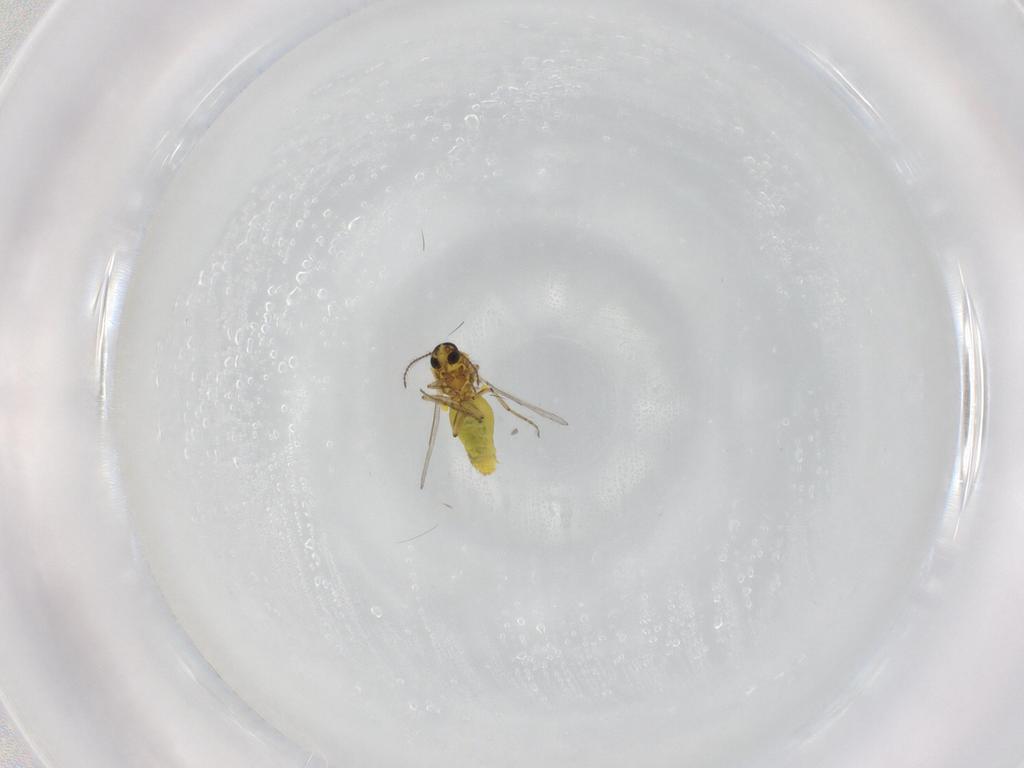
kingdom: Animalia
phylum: Arthropoda
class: Insecta
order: Diptera
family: Ceratopogonidae
